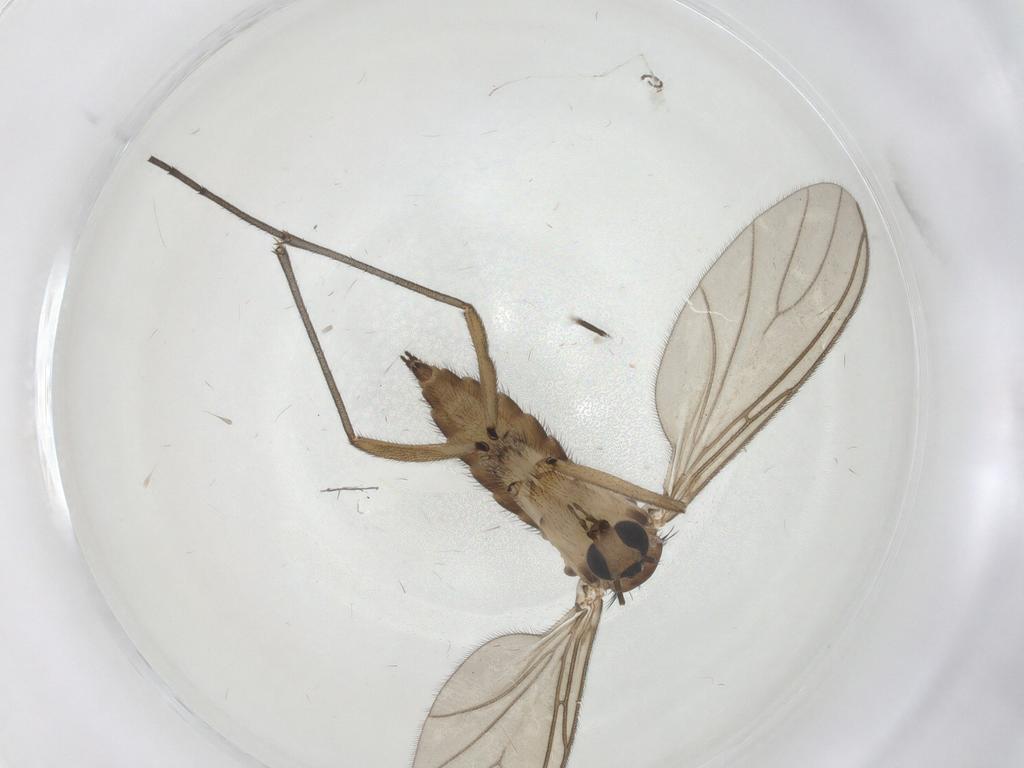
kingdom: Animalia
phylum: Arthropoda
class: Insecta
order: Diptera
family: Sciaridae
